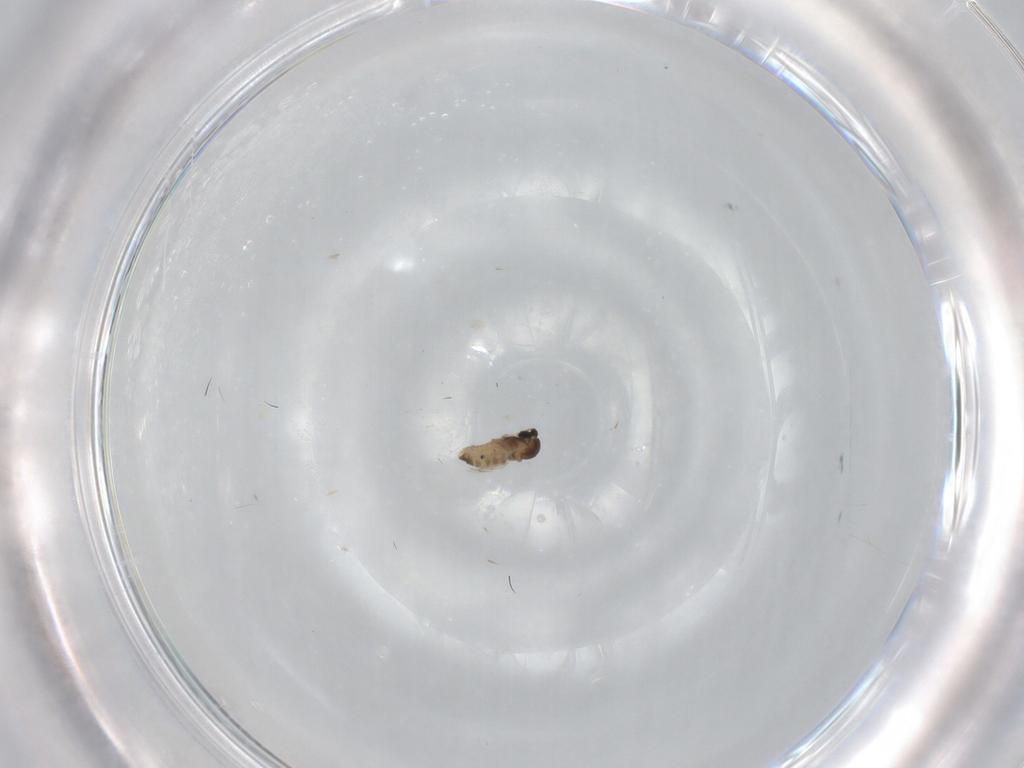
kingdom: Animalia
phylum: Arthropoda
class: Insecta
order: Diptera
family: Cecidomyiidae
